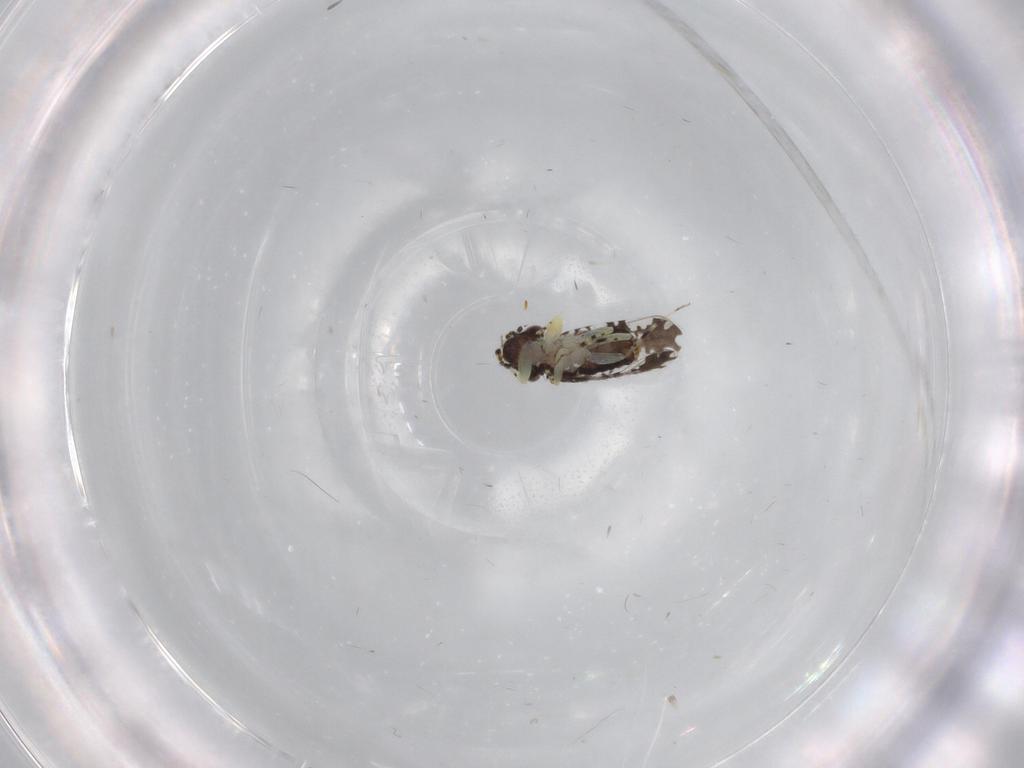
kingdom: Animalia
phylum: Arthropoda
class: Insecta
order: Psocodea
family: Psoquillidae
